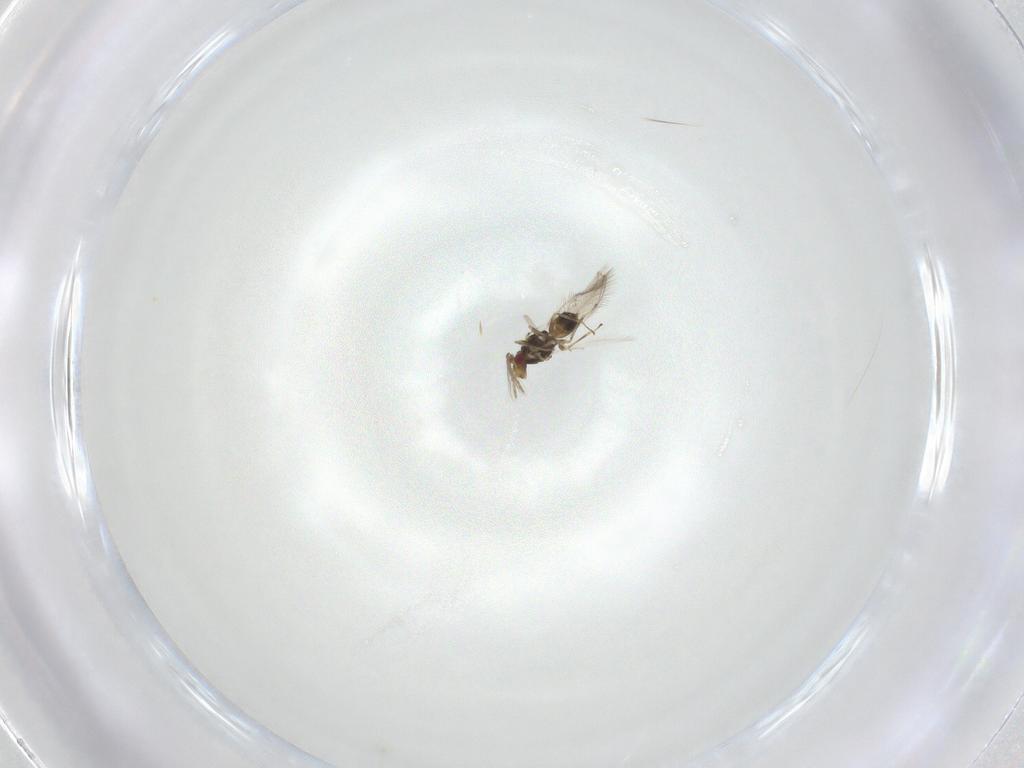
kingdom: Animalia
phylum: Arthropoda
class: Insecta
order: Hymenoptera
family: Eulophidae
